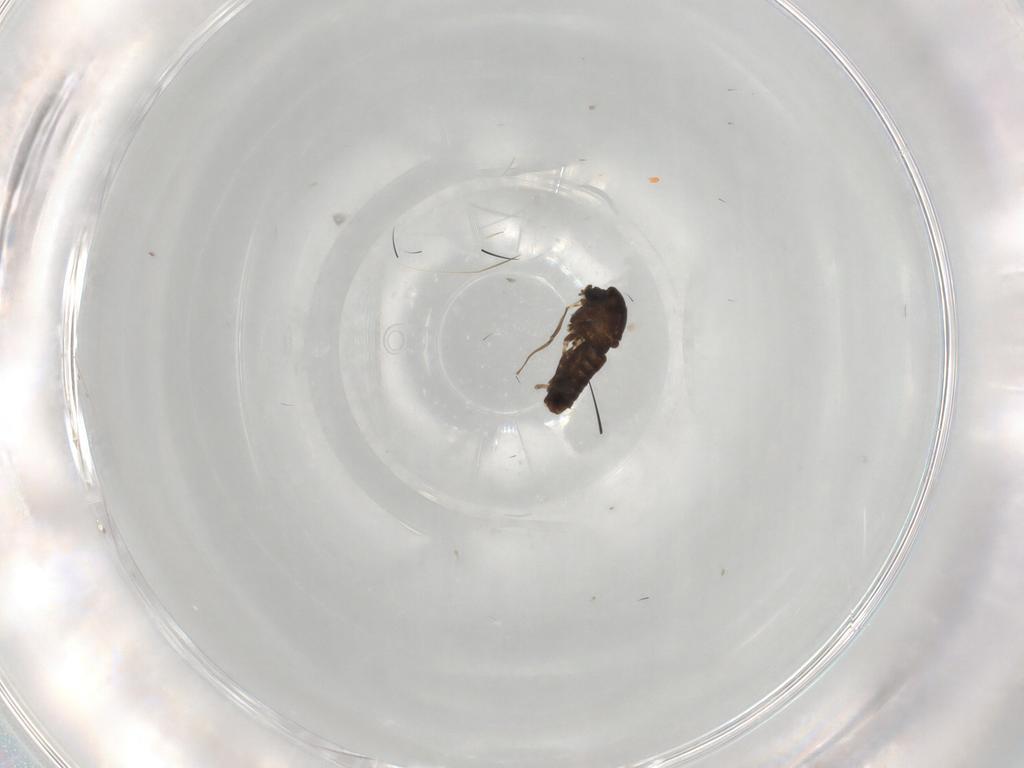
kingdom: Animalia
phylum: Arthropoda
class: Insecta
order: Diptera
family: Chironomidae
